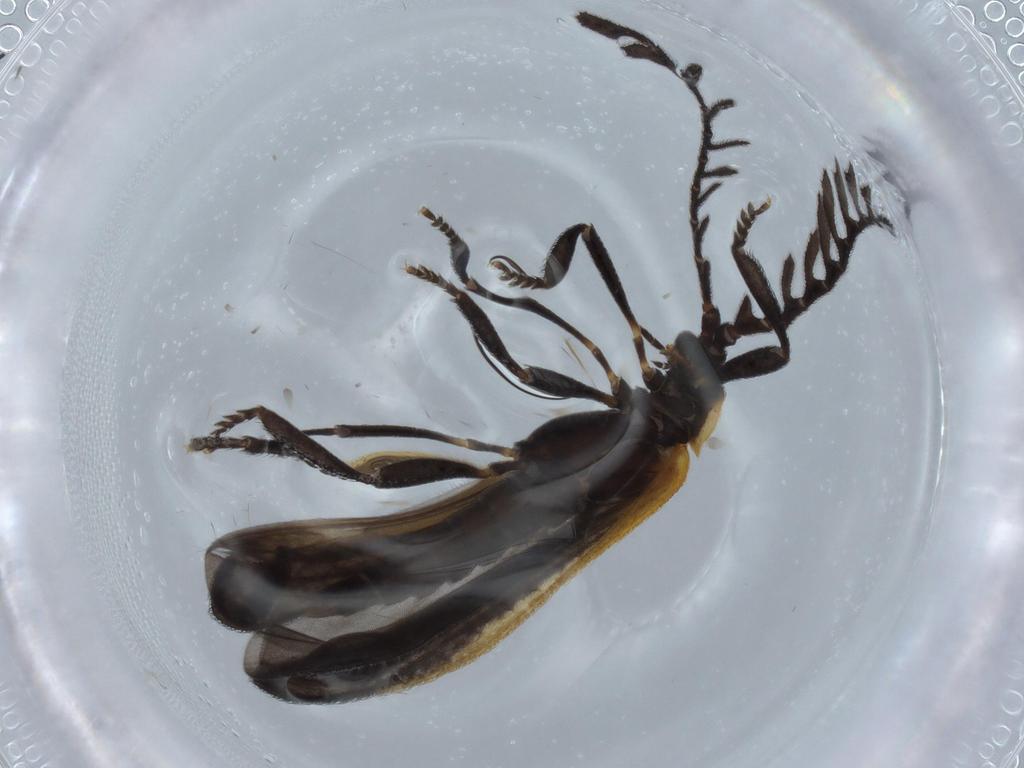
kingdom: Animalia
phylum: Arthropoda
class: Insecta
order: Coleoptera
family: Lycidae
